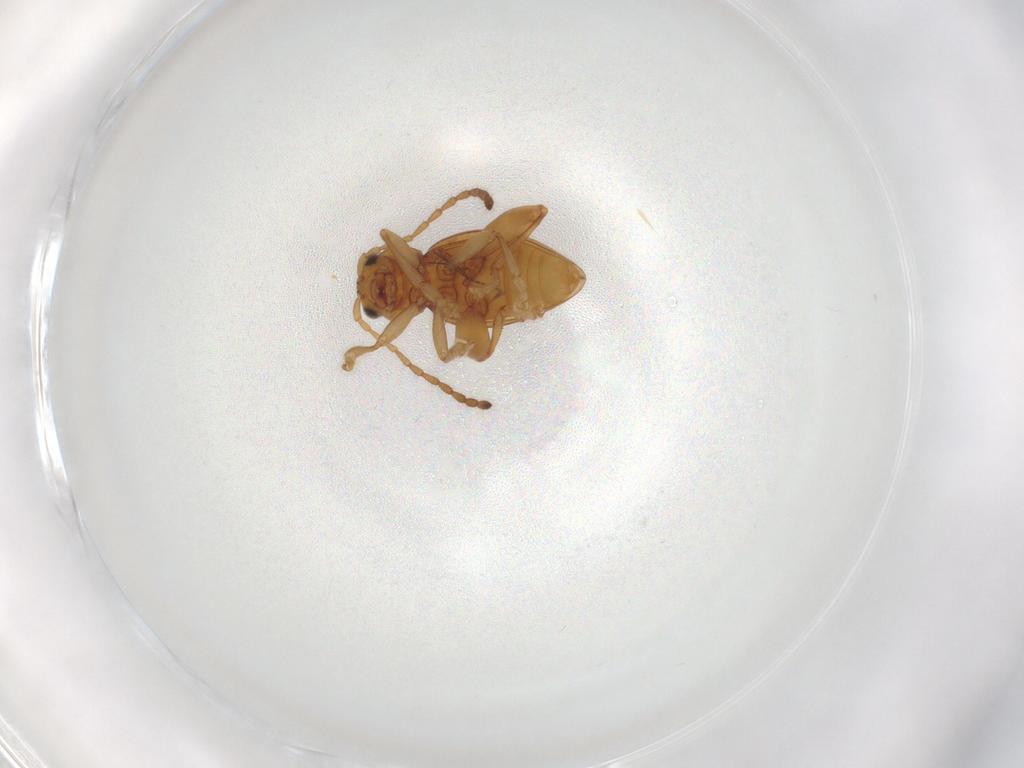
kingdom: Animalia
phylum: Arthropoda
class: Insecta
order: Coleoptera
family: Chrysomelidae
